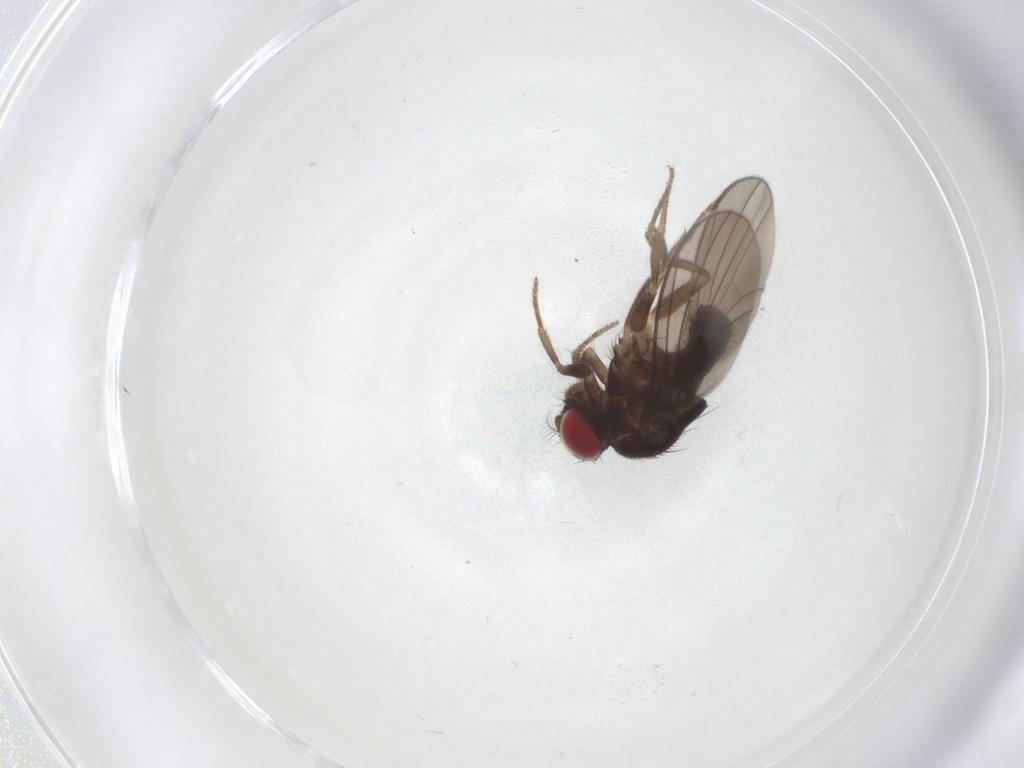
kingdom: Animalia
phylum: Arthropoda
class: Insecta
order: Diptera
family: Drosophilidae
